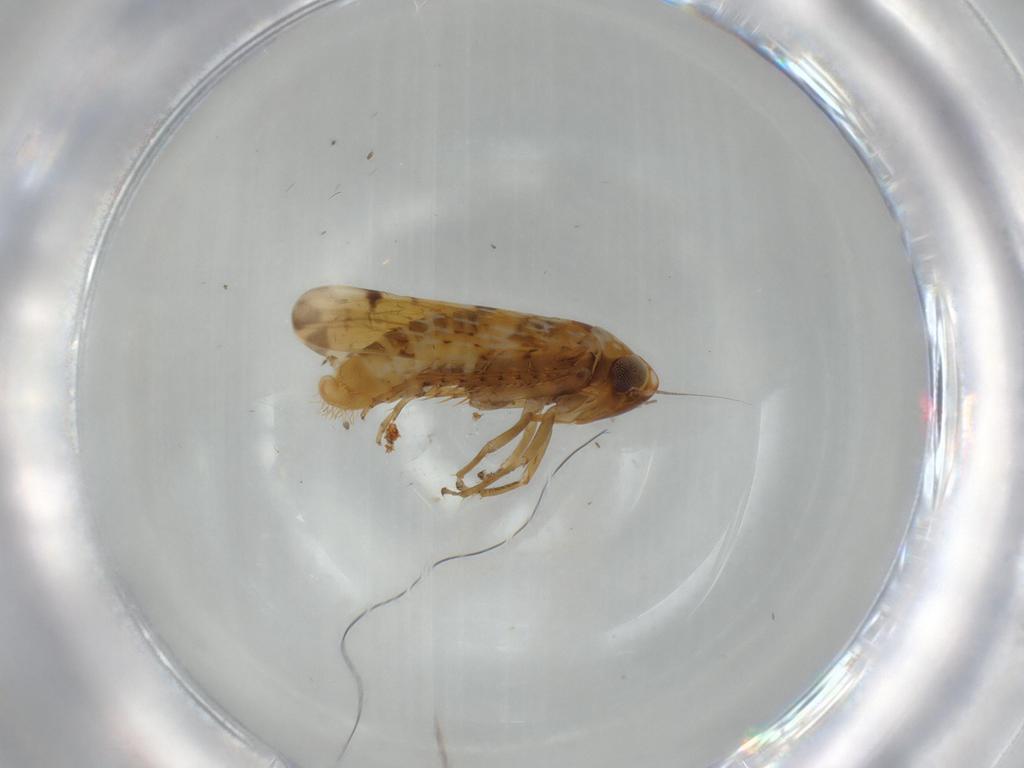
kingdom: Animalia
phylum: Arthropoda
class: Insecta
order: Hemiptera
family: Cicadellidae
